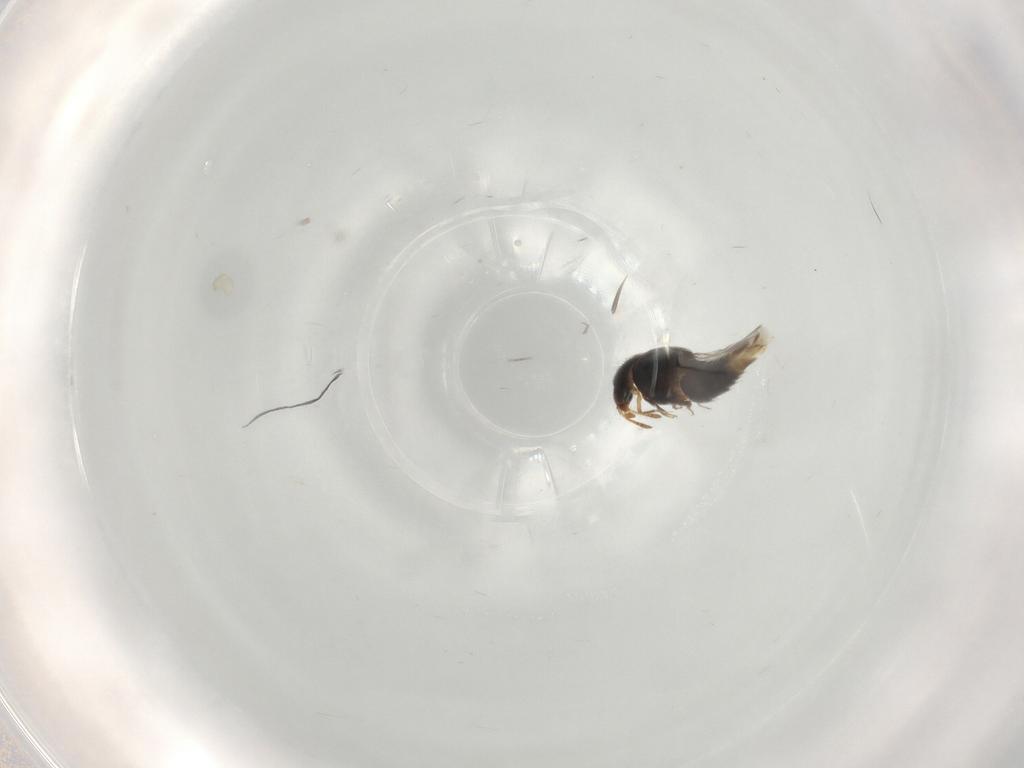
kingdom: Animalia
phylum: Arthropoda
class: Insecta
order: Coleoptera
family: Staphylinidae
